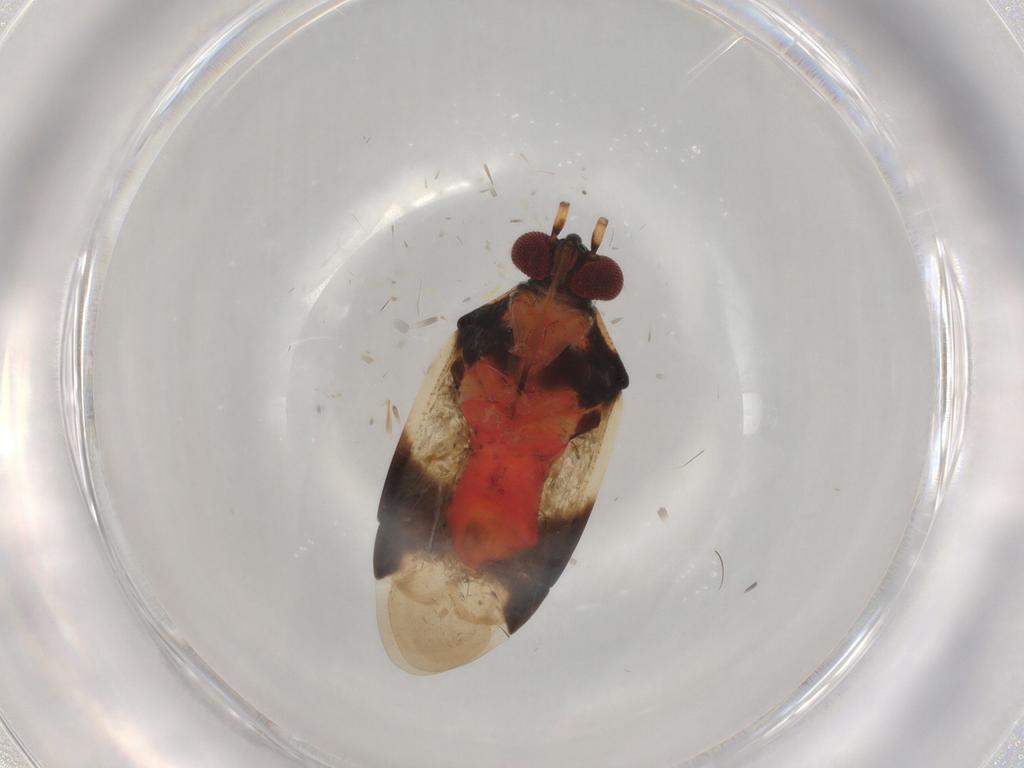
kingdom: Animalia
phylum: Arthropoda
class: Insecta
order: Hemiptera
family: Miridae
